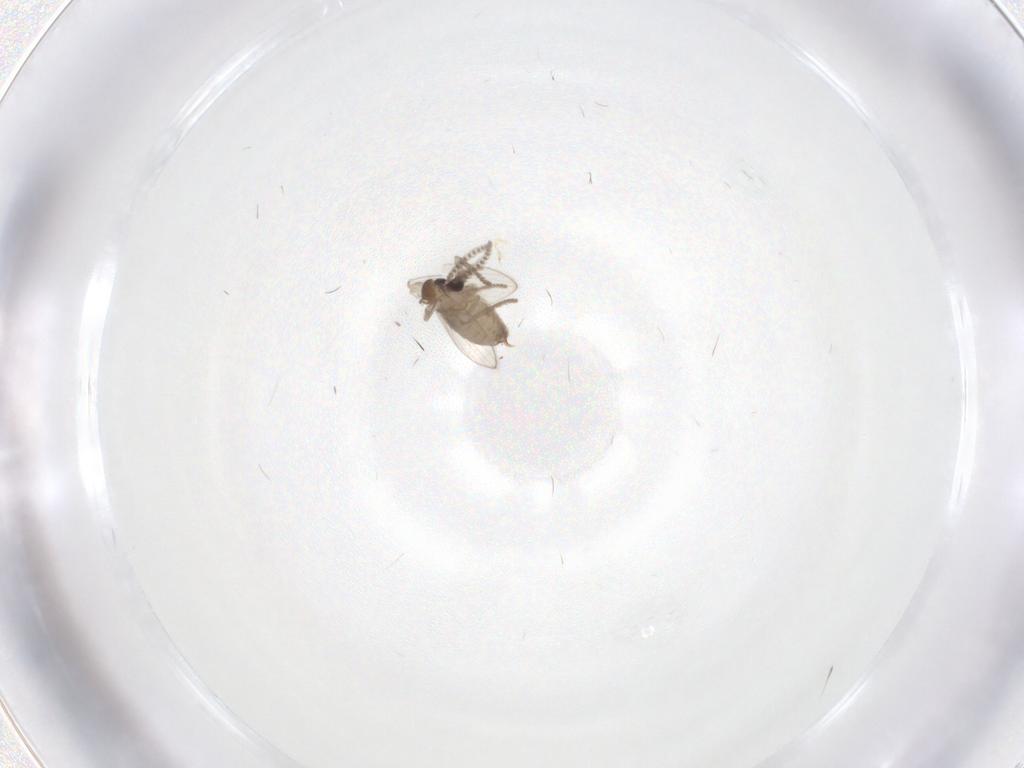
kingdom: Animalia
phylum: Arthropoda
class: Insecta
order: Diptera
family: Psychodidae
